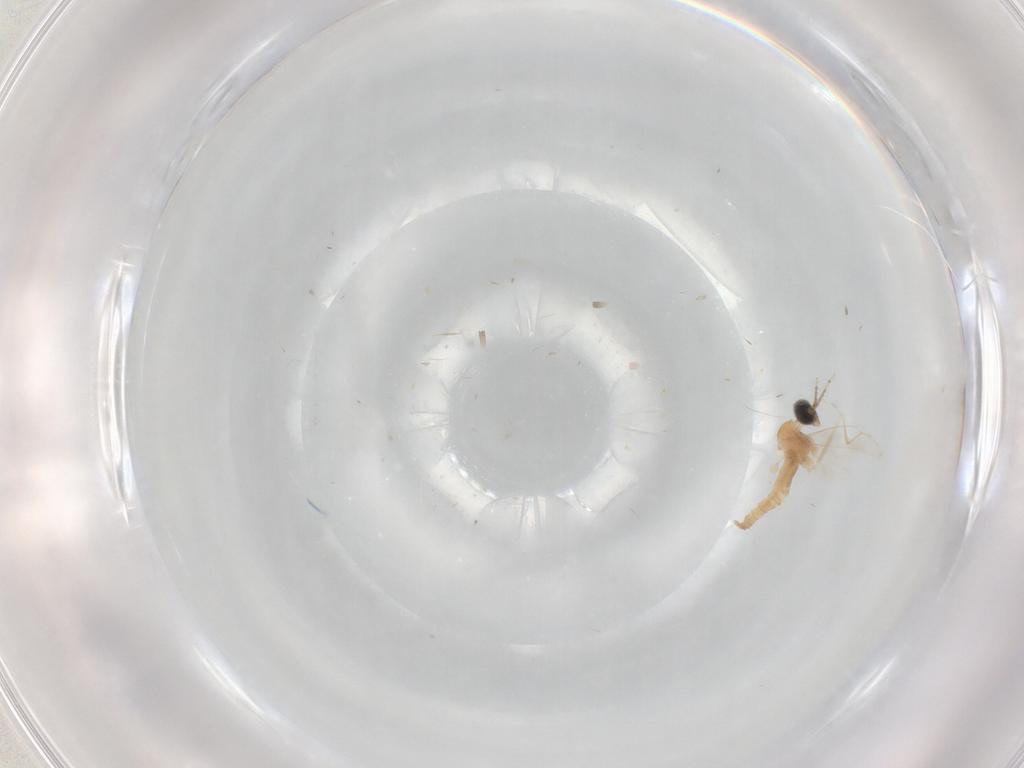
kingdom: Animalia
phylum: Arthropoda
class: Insecta
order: Diptera
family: Cecidomyiidae
